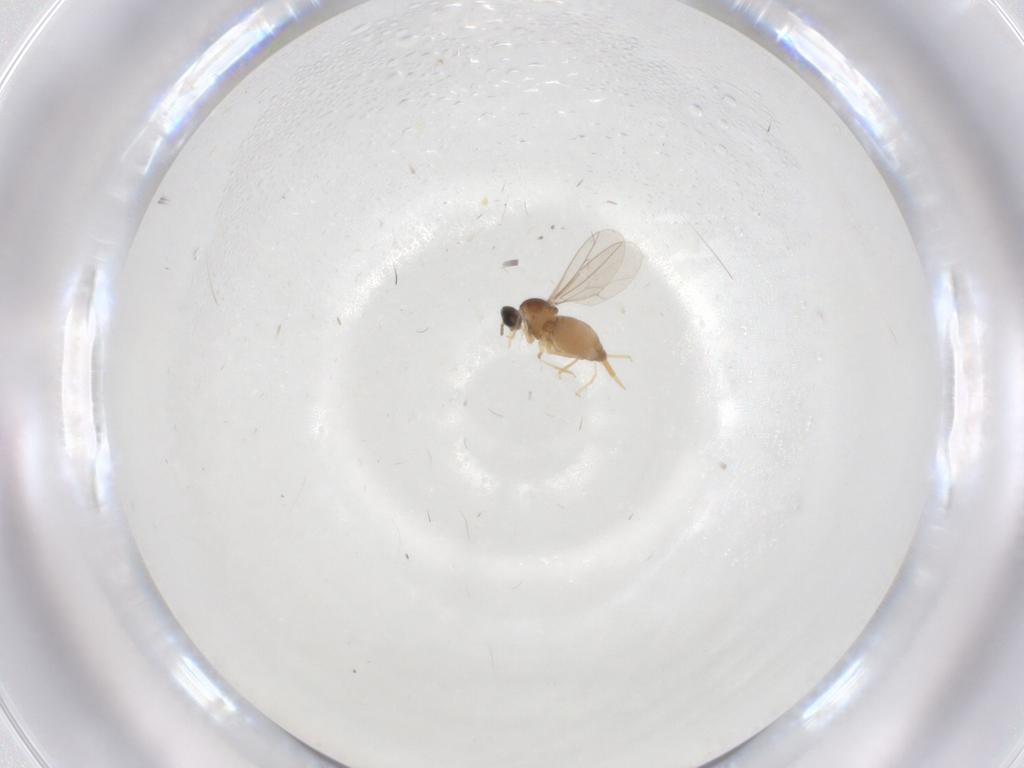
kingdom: Animalia
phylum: Arthropoda
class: Insecta
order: Diptera
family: Cecidomyiidae
